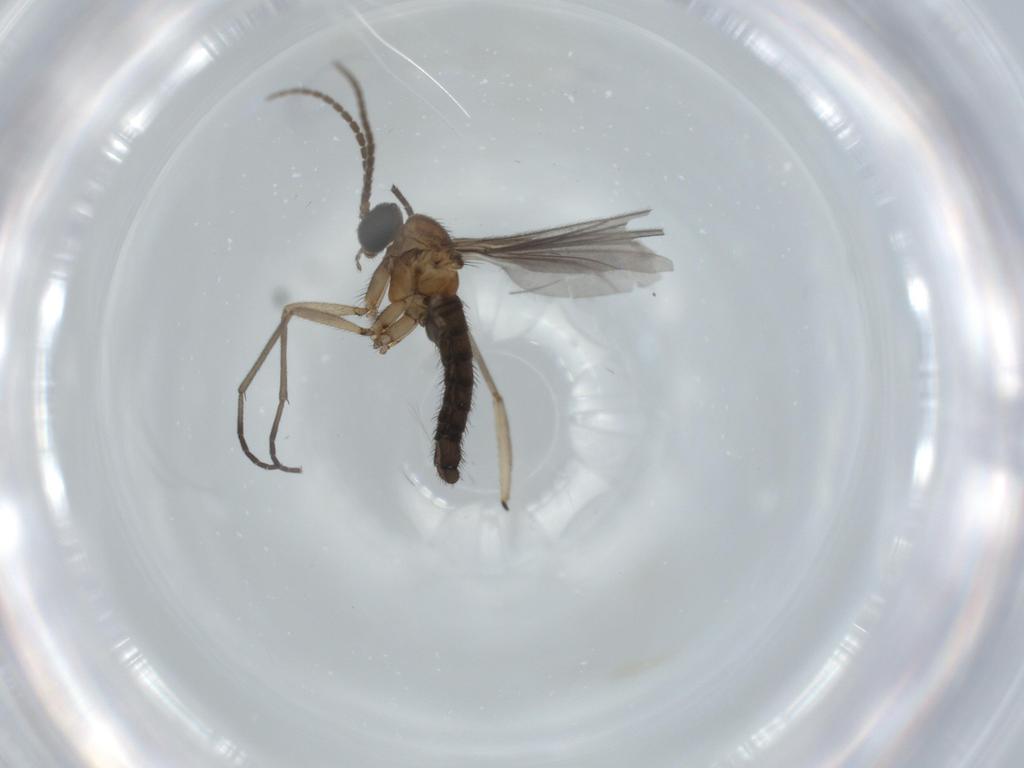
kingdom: Animalia
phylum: Arthropoda
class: Insecta
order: Diptera
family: Sciaridae
